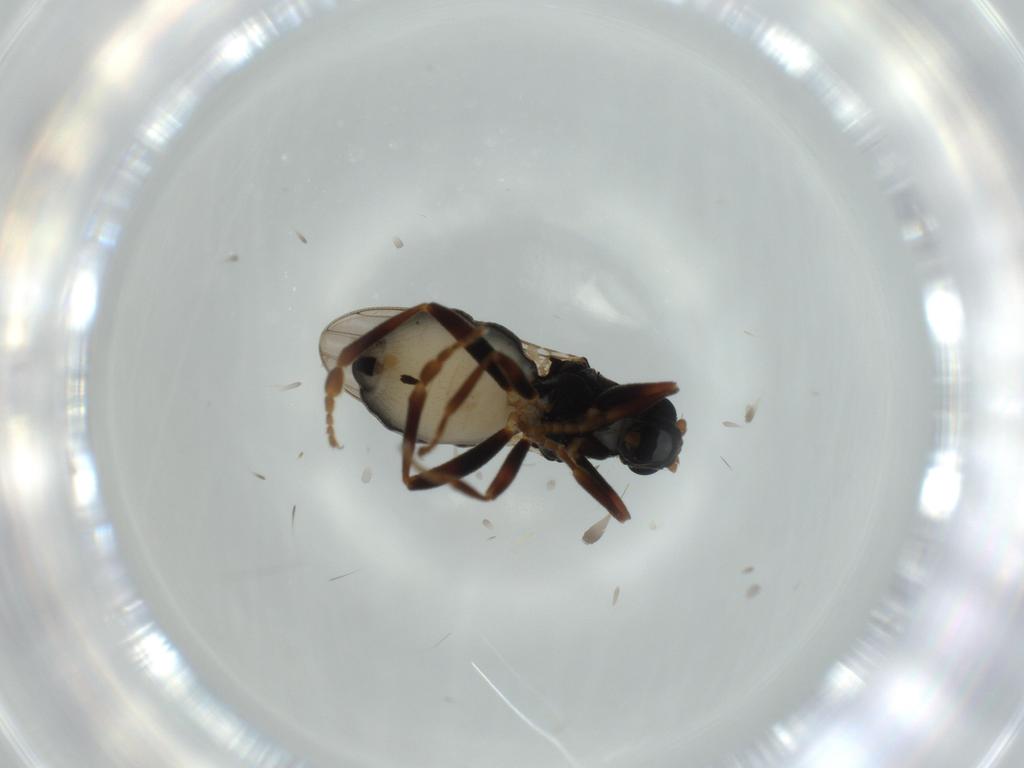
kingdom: Animalia
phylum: Arthropoda
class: Insecta
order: Diptera
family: Sphaeroceridae
